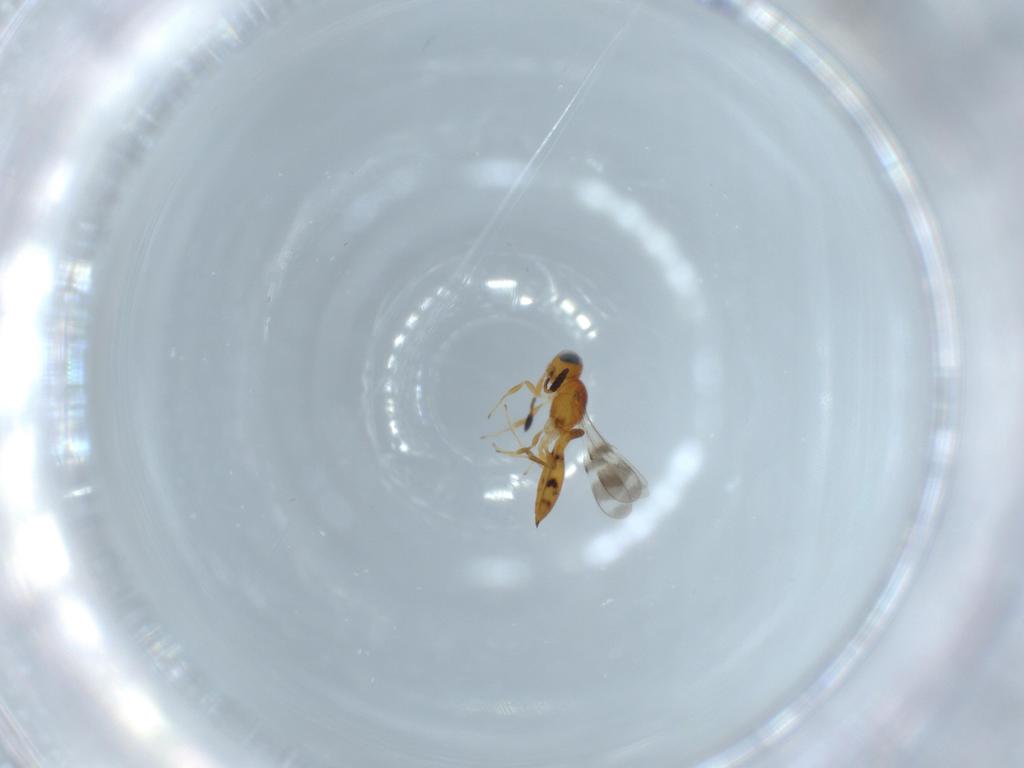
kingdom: Animalia
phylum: Arthropoda
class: Insecta
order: Hymenoptera
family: Scelionidae
